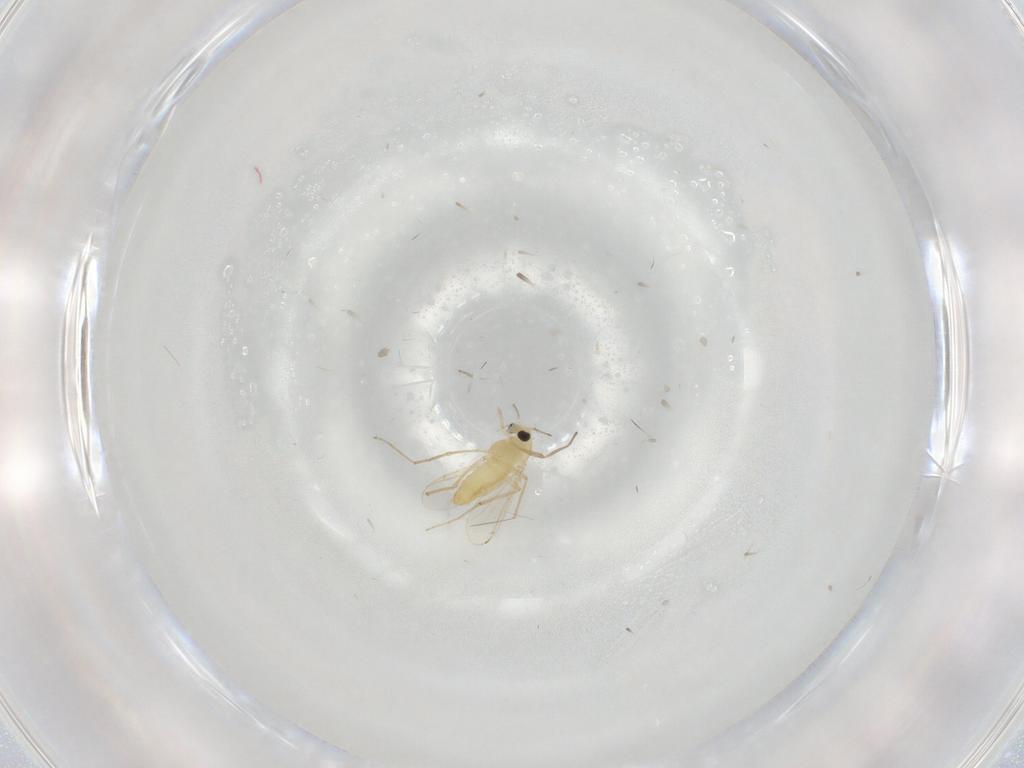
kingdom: Animalia
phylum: Arthropoda
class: Insecta
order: Diptera
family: Chironomidae
